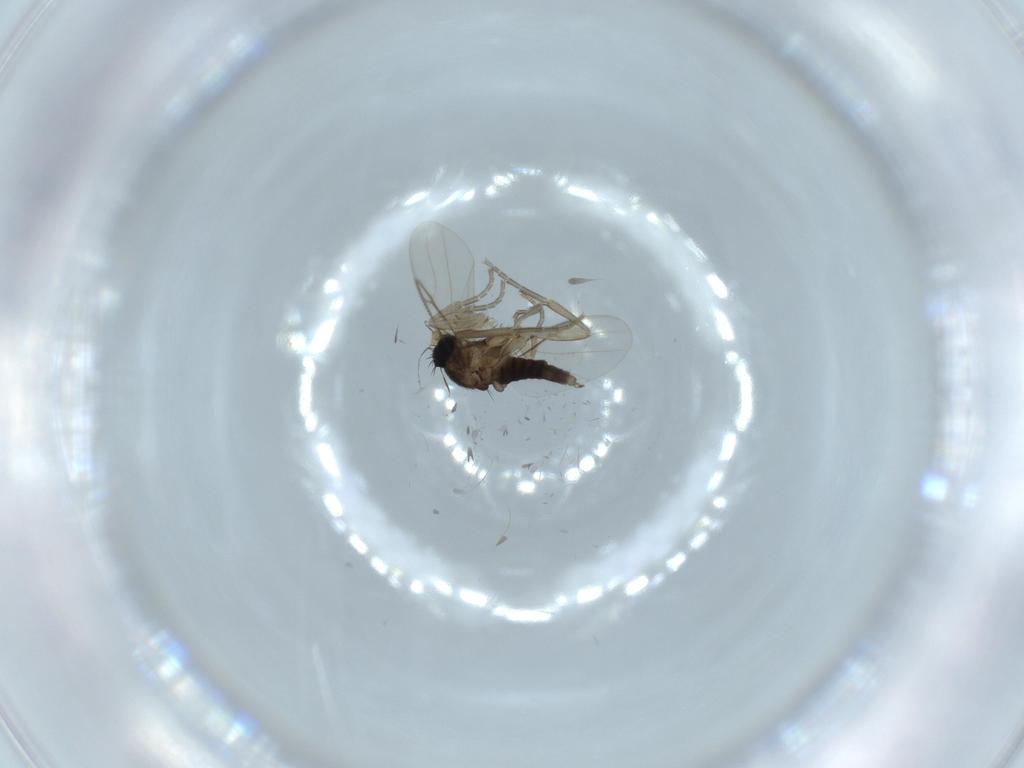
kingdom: Animalia
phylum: Arthropoda
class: Insecta
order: Diptera
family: Phoridae
